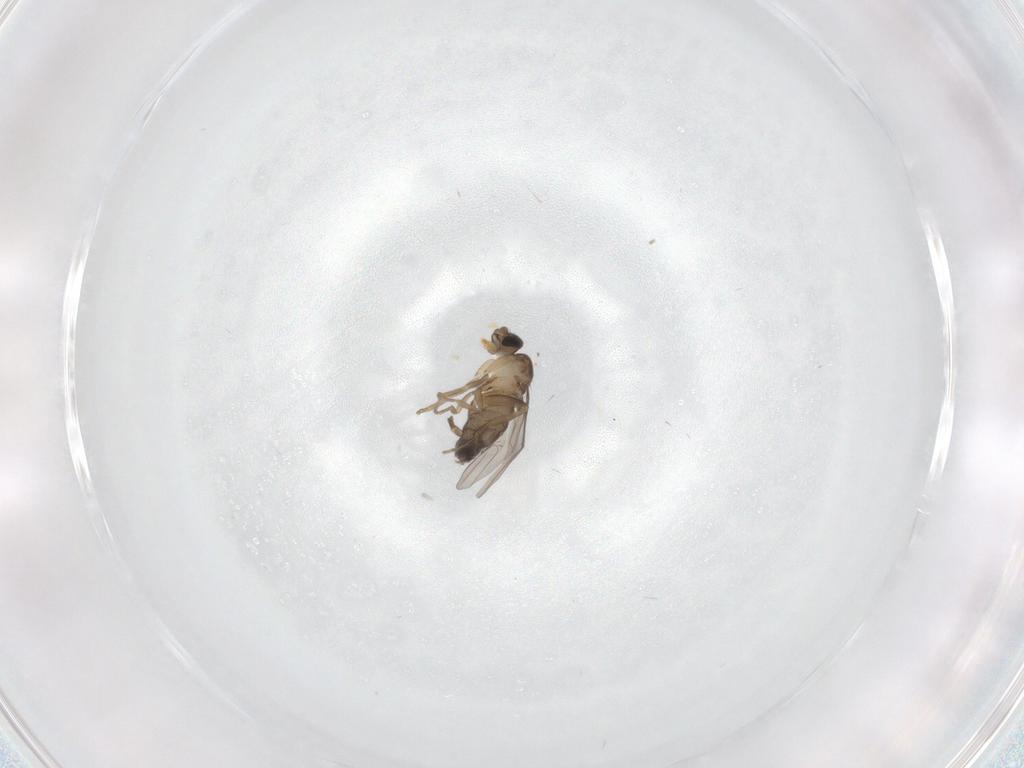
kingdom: Animalia
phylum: Arthropoda
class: Insecta
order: Diptera
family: Phoridae
